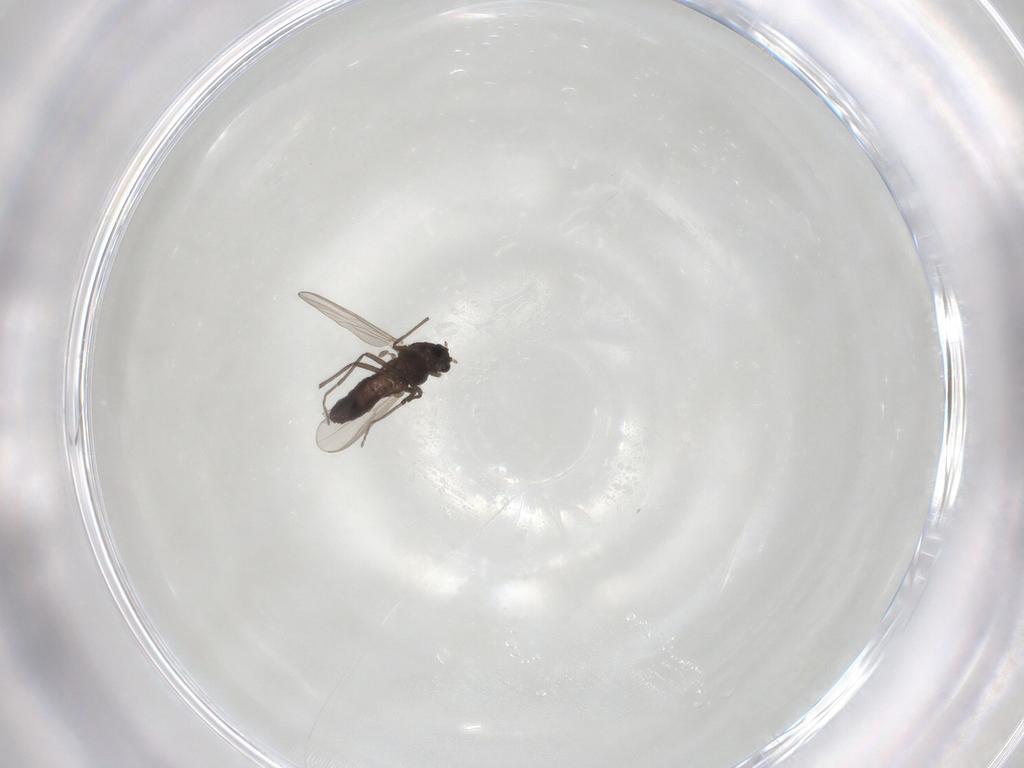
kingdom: Animalia
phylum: Arthropoda
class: Insecta
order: Diptera
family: Chironomidae
